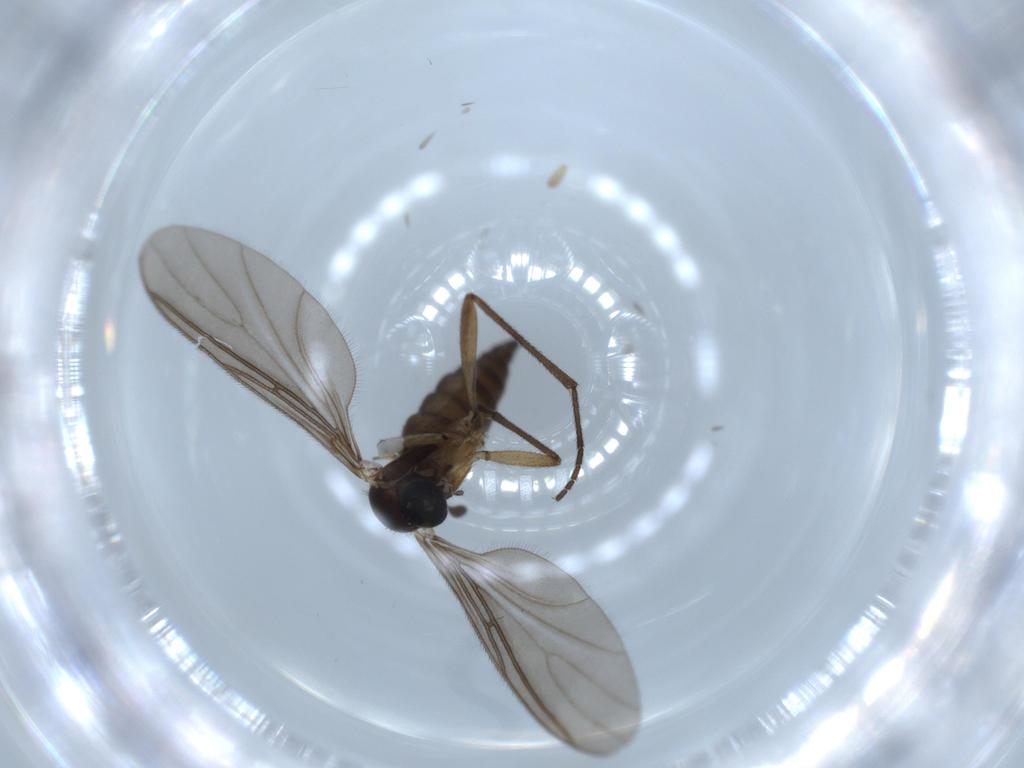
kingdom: Animalia
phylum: Arthropoda
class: Insecta
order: Diptera
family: Sciaridae
